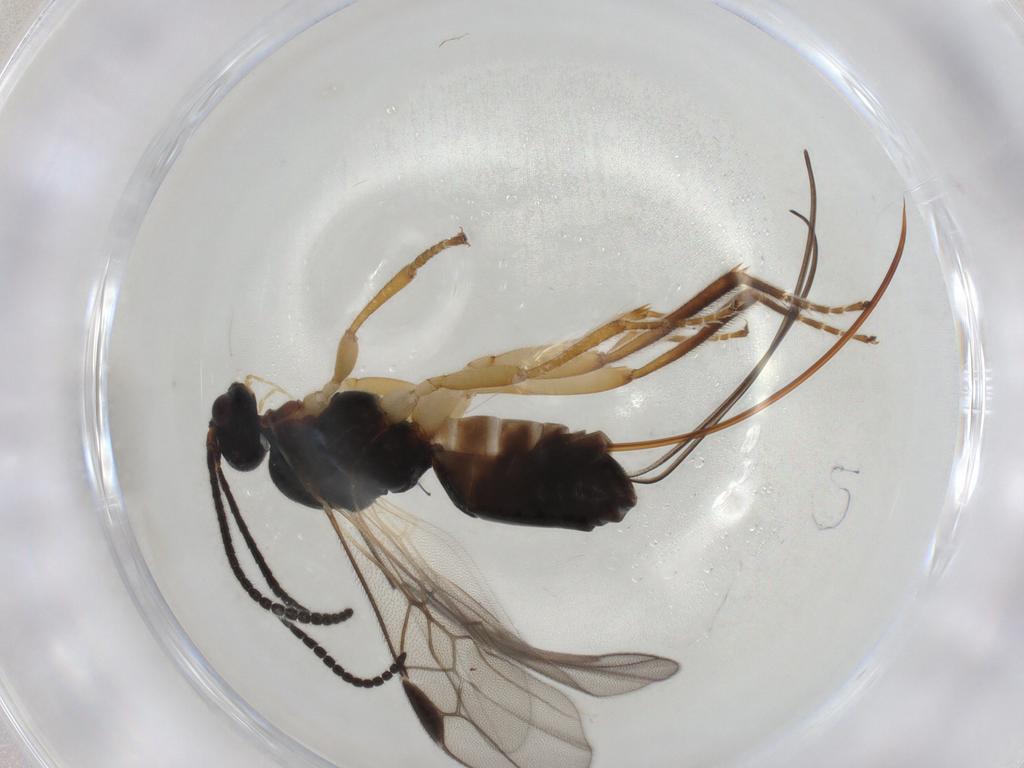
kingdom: Animalia
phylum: Arthropoda
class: Insecta
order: Hymenoptera
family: Braconidae
